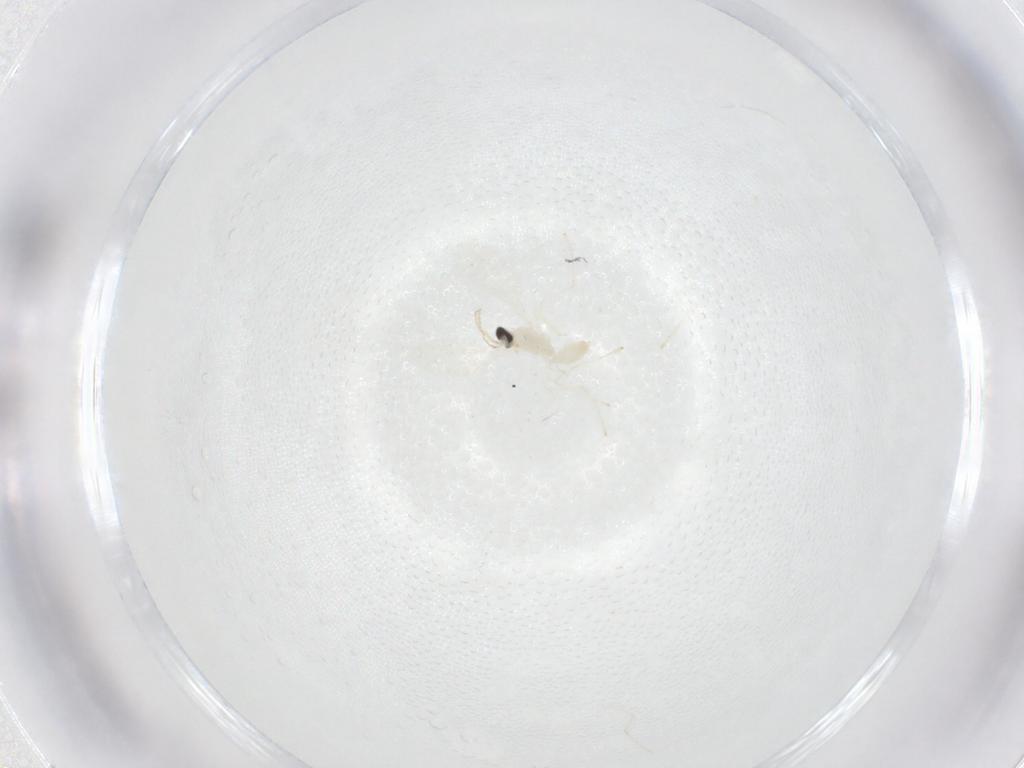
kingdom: Animalia
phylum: Arthropoda
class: Insecta
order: Diptera
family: Cecidomyiidae
